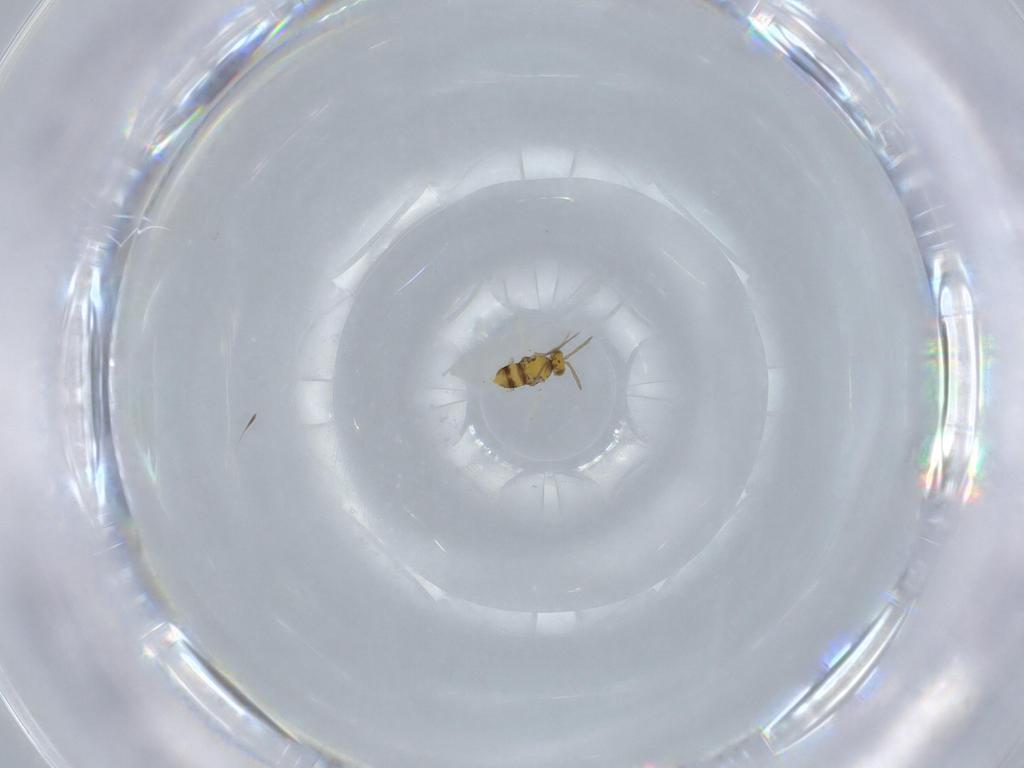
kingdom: Animalia
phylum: Arthropoda
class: Insecta
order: Hymenoptera
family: Aphelinidae
